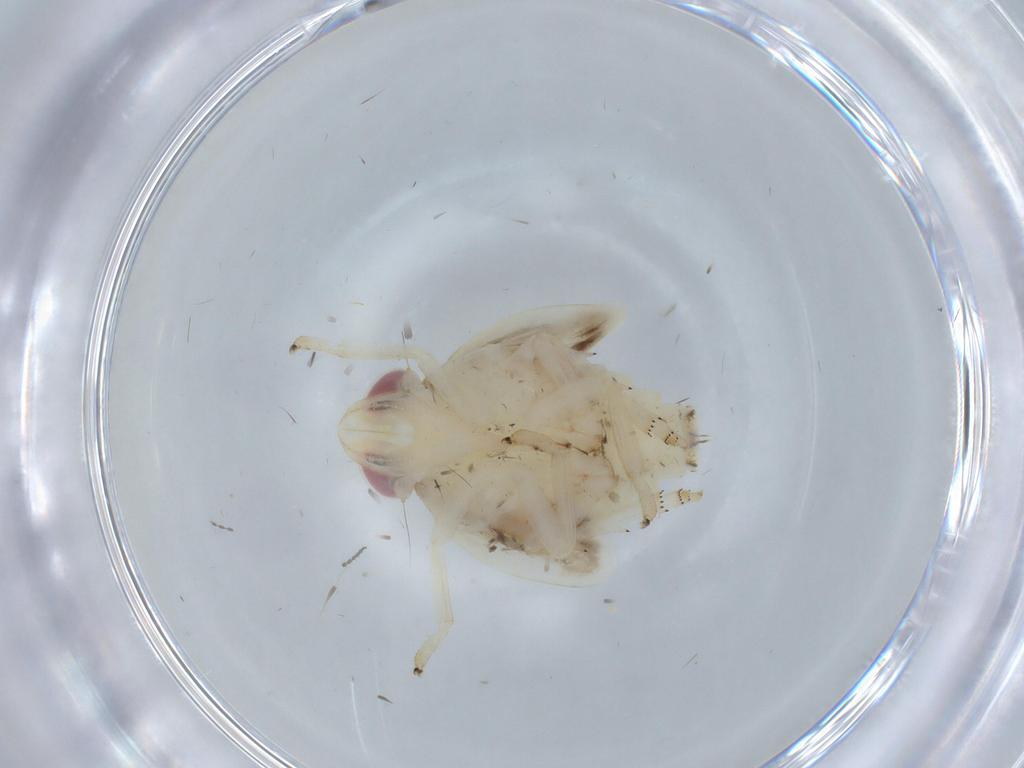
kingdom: Animalia
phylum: Arthropoda
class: Insecta
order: Hemiptera
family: Nogodinidae
